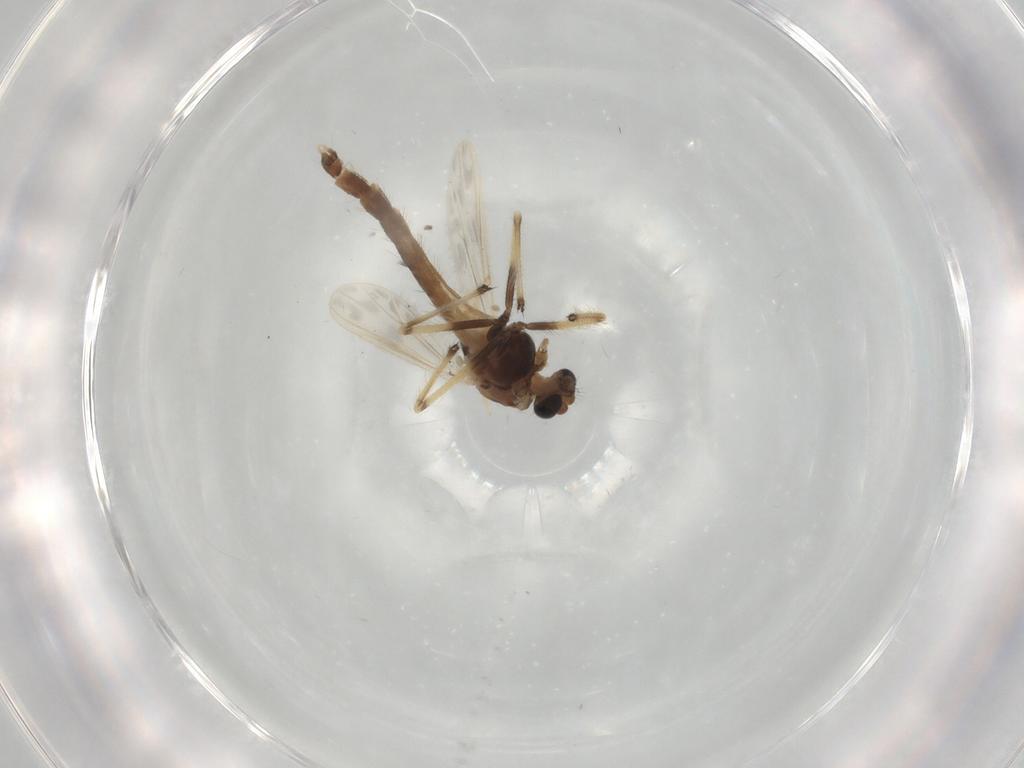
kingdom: Animalia
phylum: Arthropoda
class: Insecta
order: Diptera
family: Chironomidae
